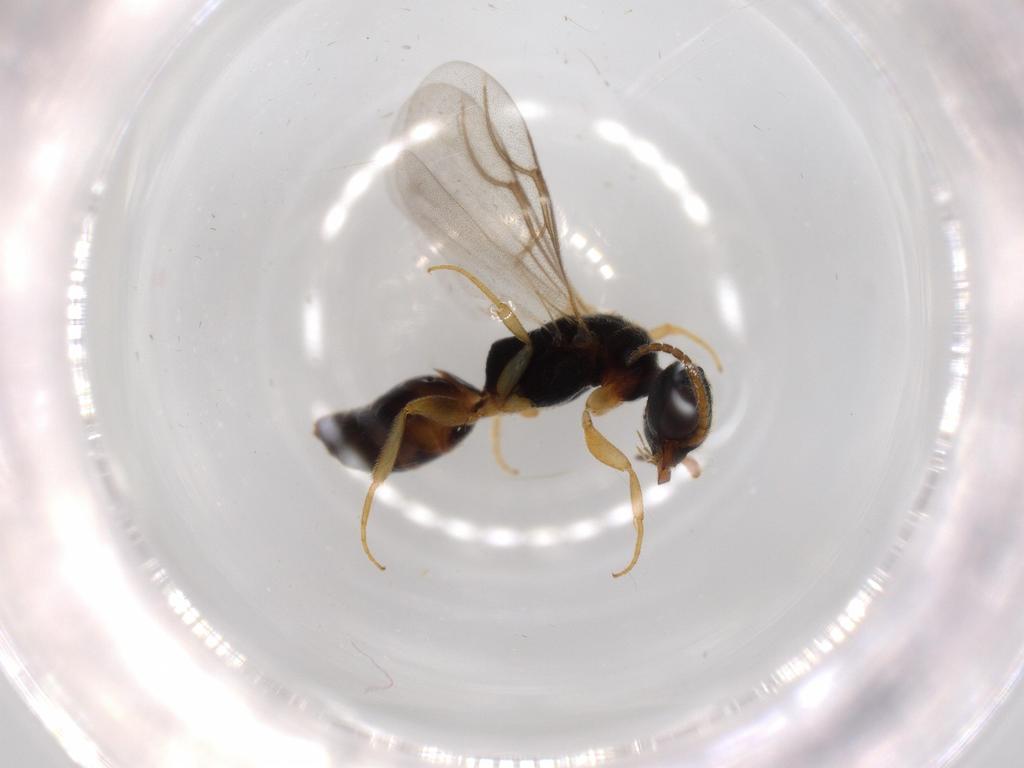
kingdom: Animalia
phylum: Arthropoda
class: Insecta
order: Hymenoptera
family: Bethylidae
